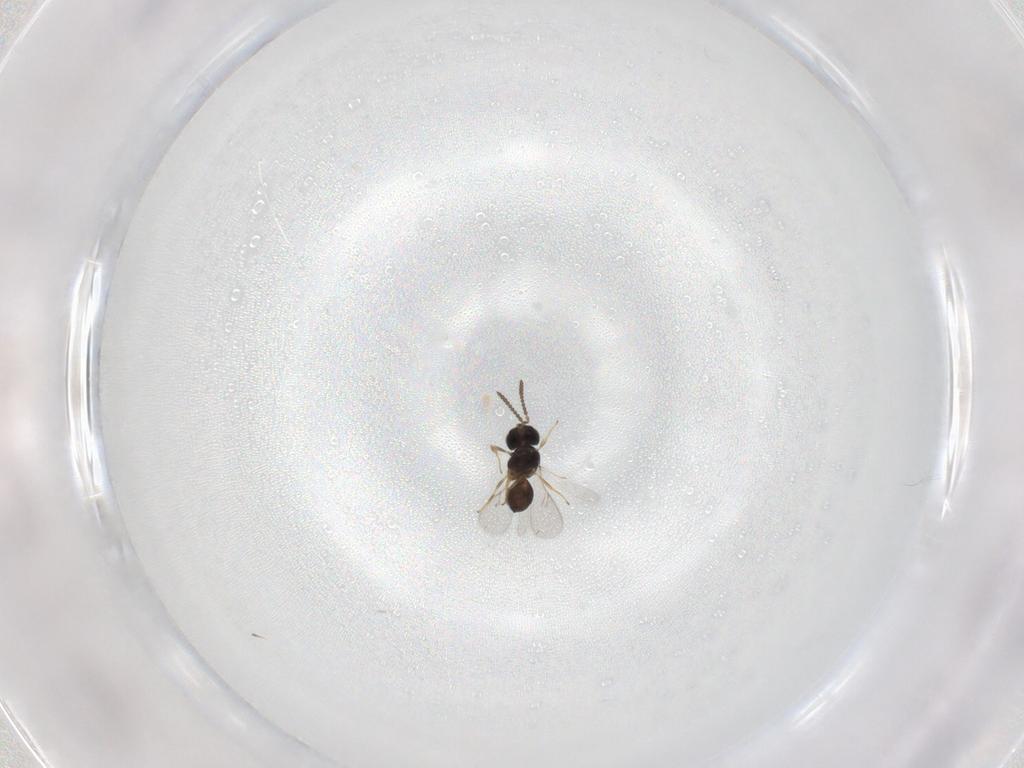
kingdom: Animalia
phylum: Arthropoda
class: Insecta
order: Hymenoptera
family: Scelionidae
